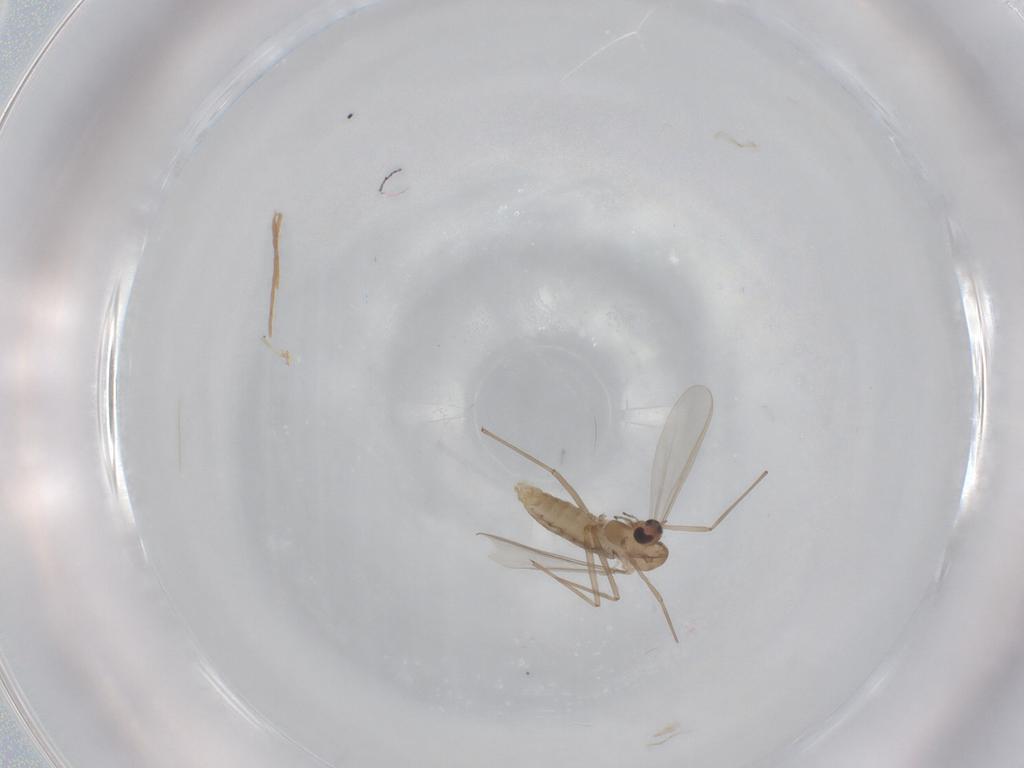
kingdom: Animalia
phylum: Arthropoda
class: Insecta
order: Diptera
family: Chironomidae
